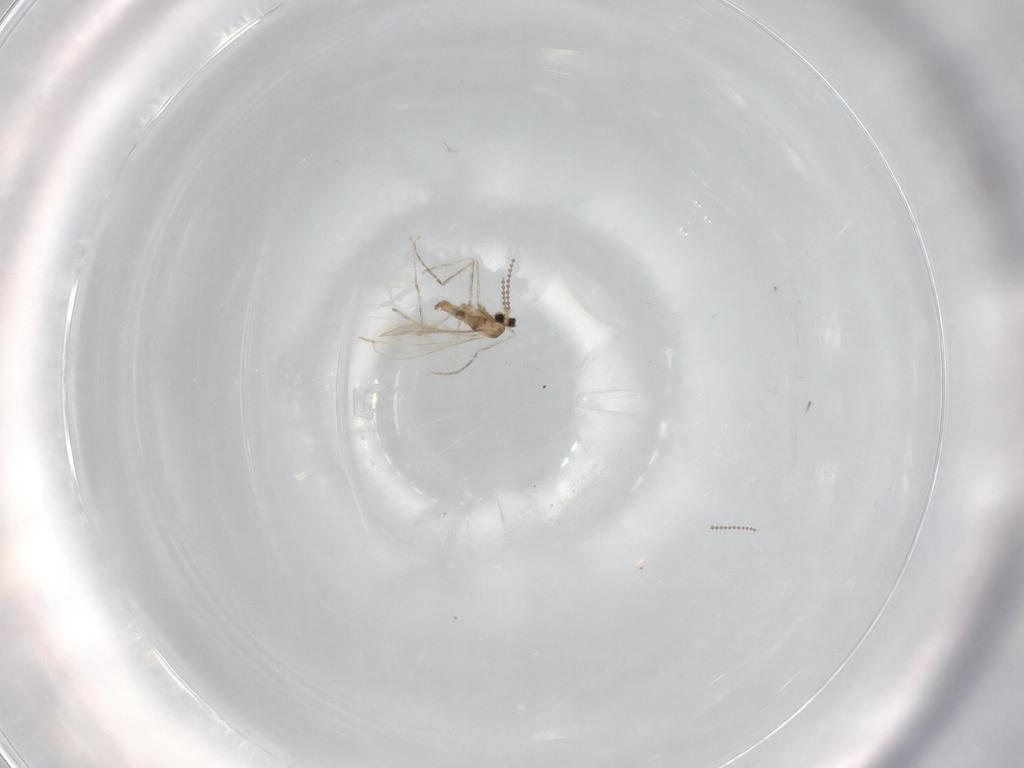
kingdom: Animalia
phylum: Arthropoda
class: Insecta
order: Diptera
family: Cecidomyiidae
